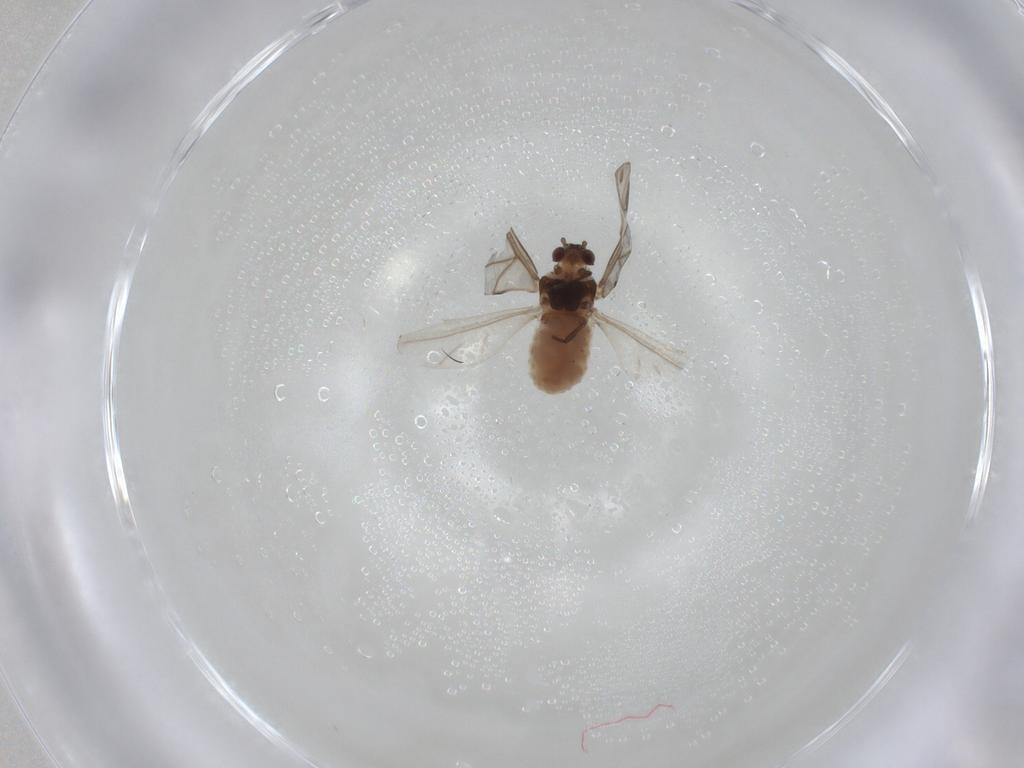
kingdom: Animalia
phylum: Arthropoda
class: Insecta
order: Hemiptera
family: Aphididae
